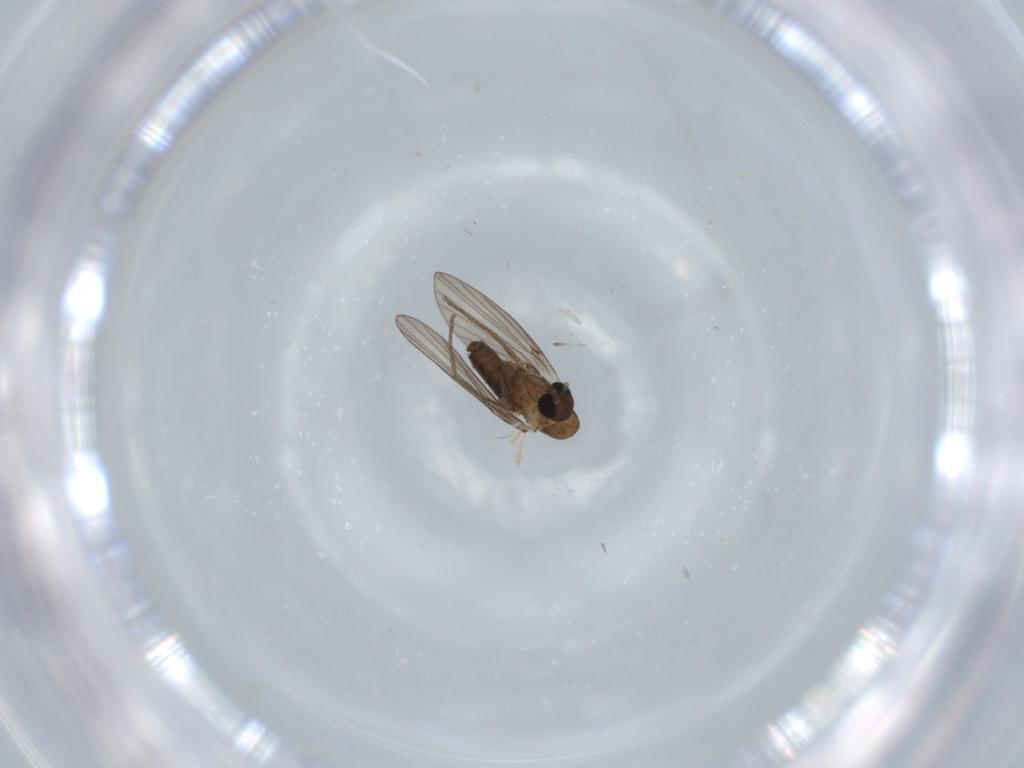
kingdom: Animalia
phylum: Arthropoda
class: Insecta
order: Diptera
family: Psychodidae
